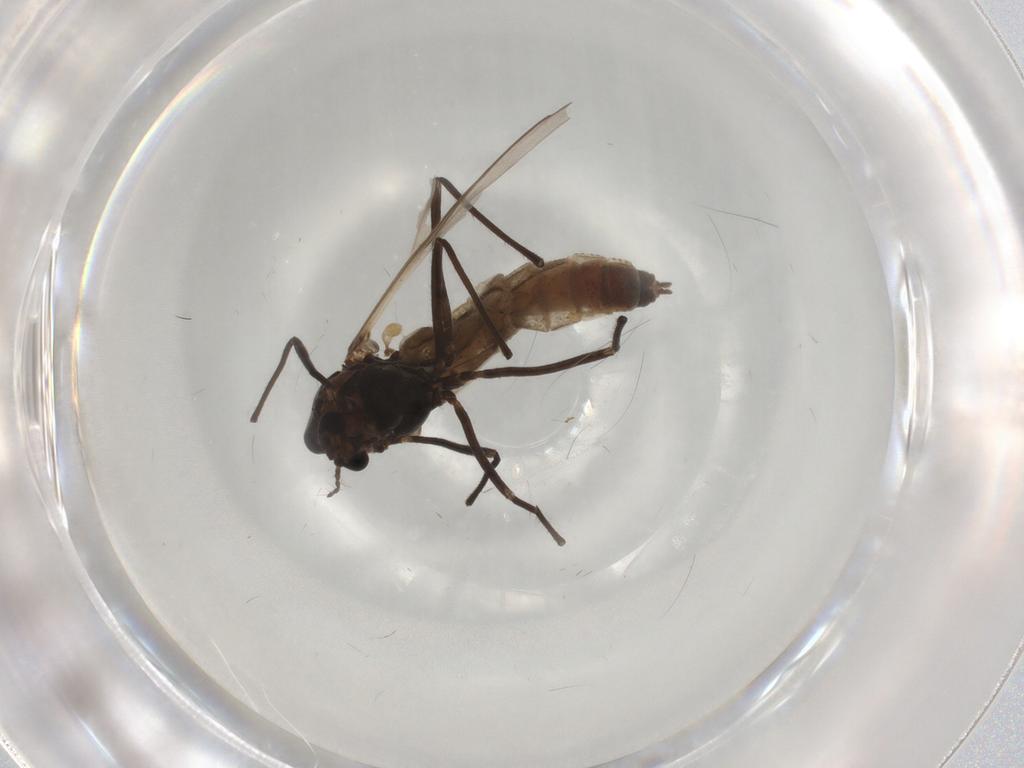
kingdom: Animalia
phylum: Arthropoda
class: Insecta
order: Diptera
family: Chironomidae
